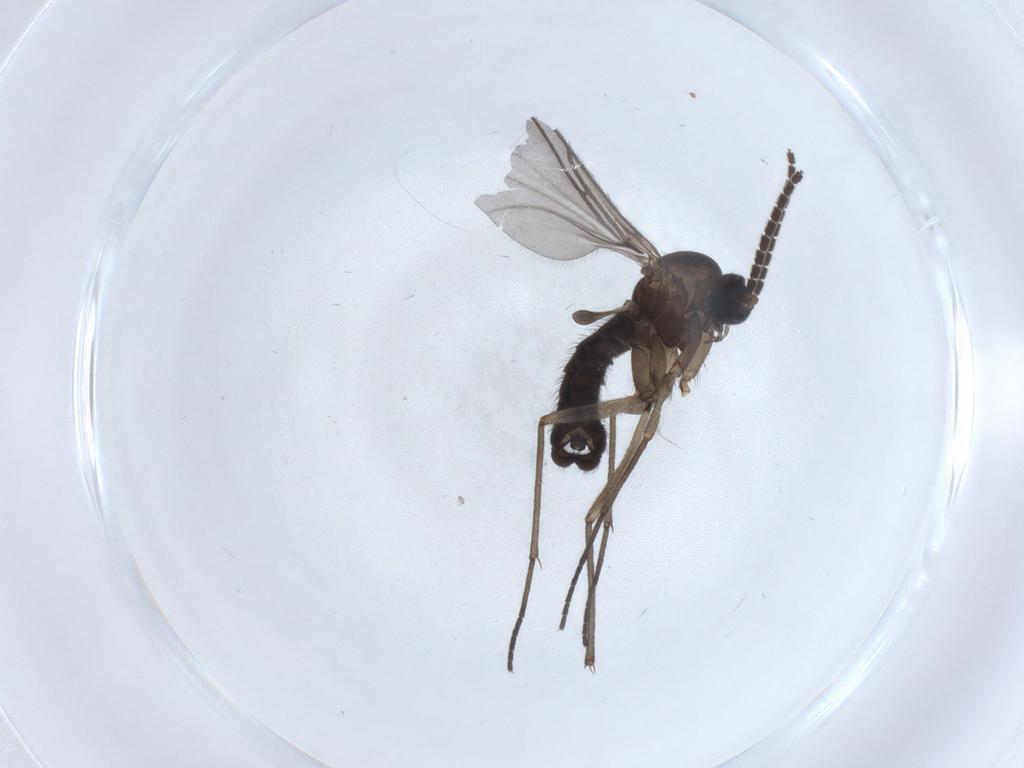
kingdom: Animalia
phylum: Arthropoda
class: Insecta
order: Diptera
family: Sciaridae
